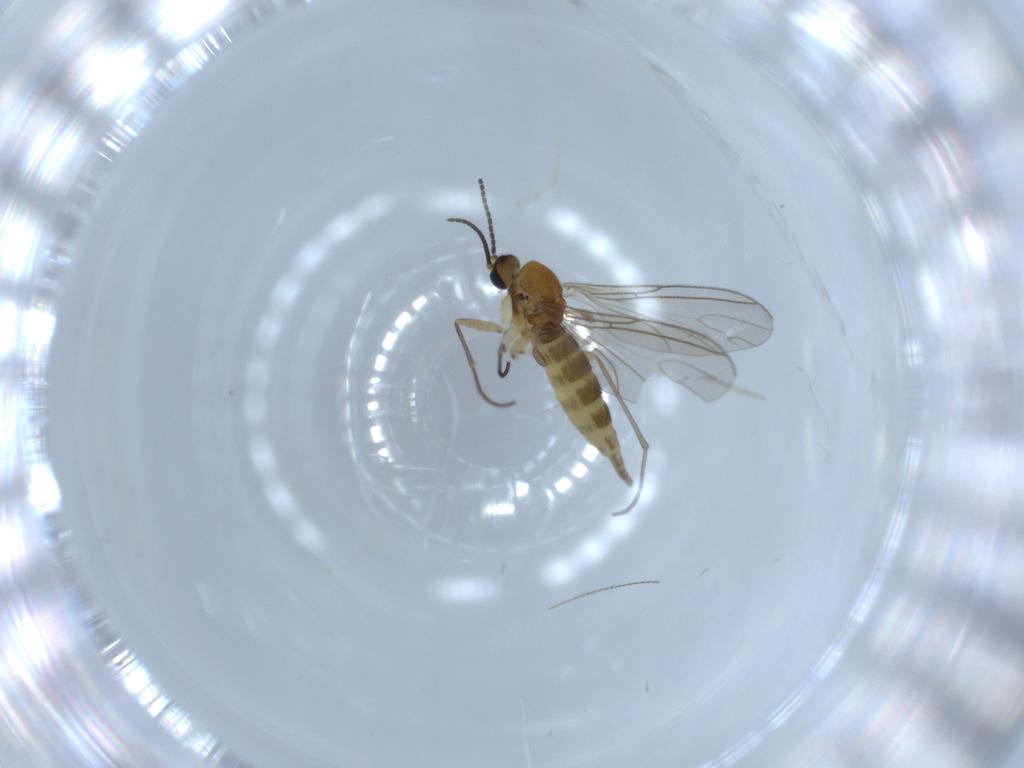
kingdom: Animalia
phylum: Arthropoda
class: Insecta
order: Diptera
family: Sciaridae
